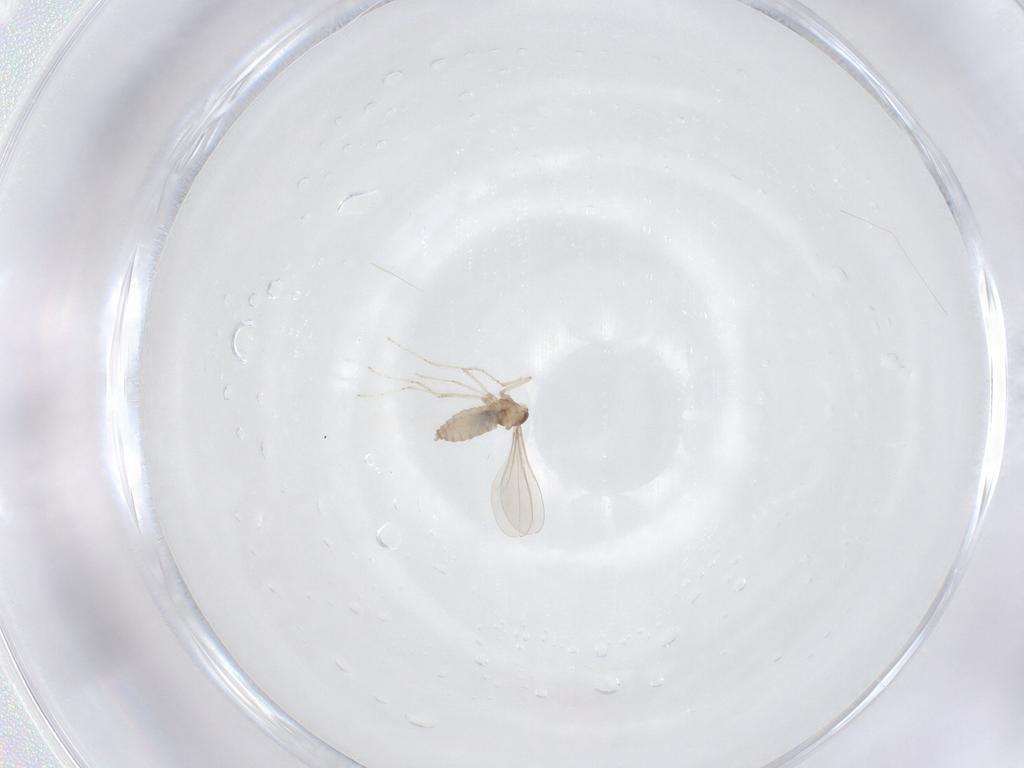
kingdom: Animalia
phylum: Arthropoda
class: Insecta
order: Diptera
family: Cecidomyiidae
